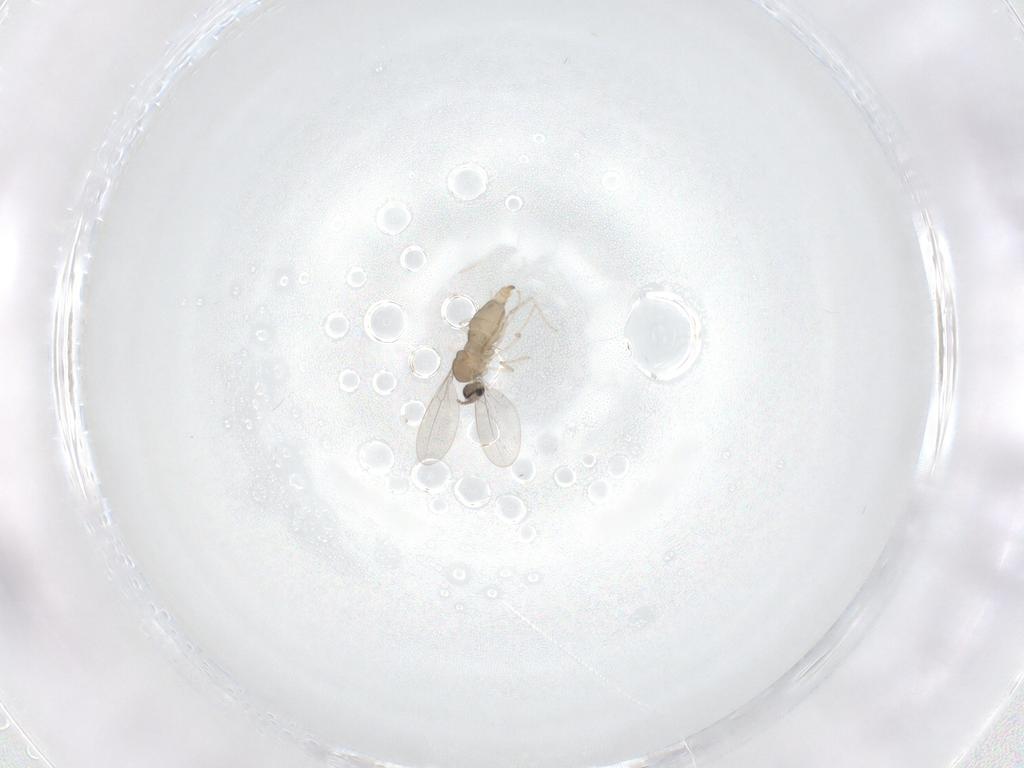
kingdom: Animalia
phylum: Arthropoda
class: Insecta
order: Diptera
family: Cecidomyiidae
